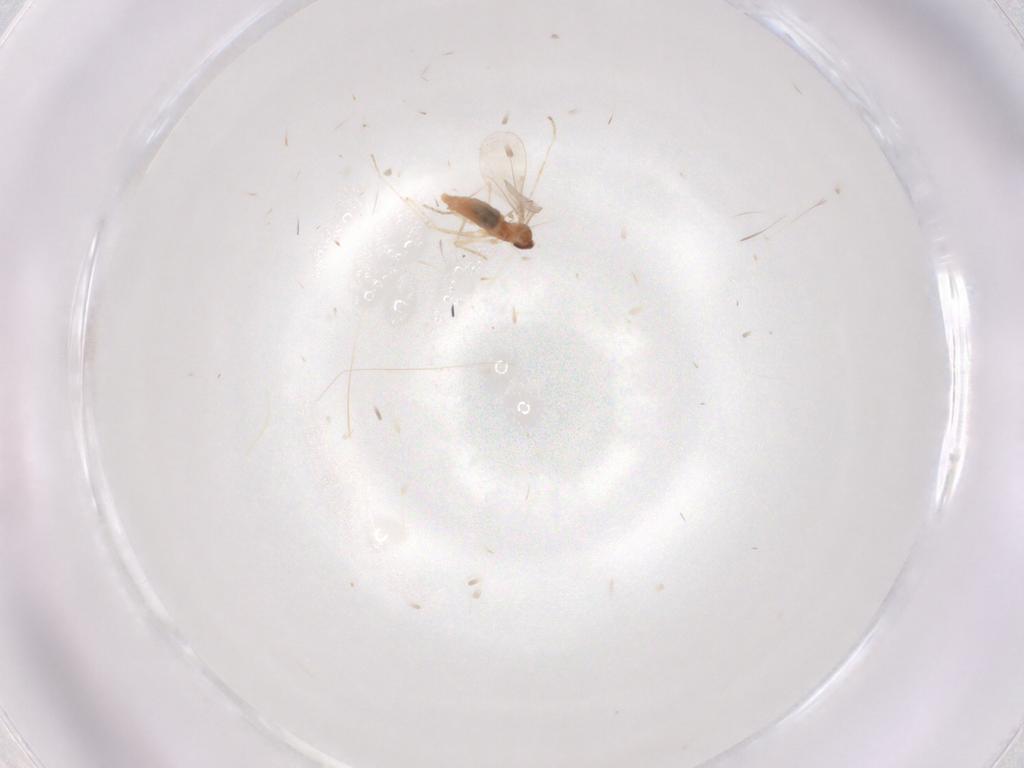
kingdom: Animalia
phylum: Arthropoda
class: Insecta
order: Diptera
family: Cecidomyiidae
